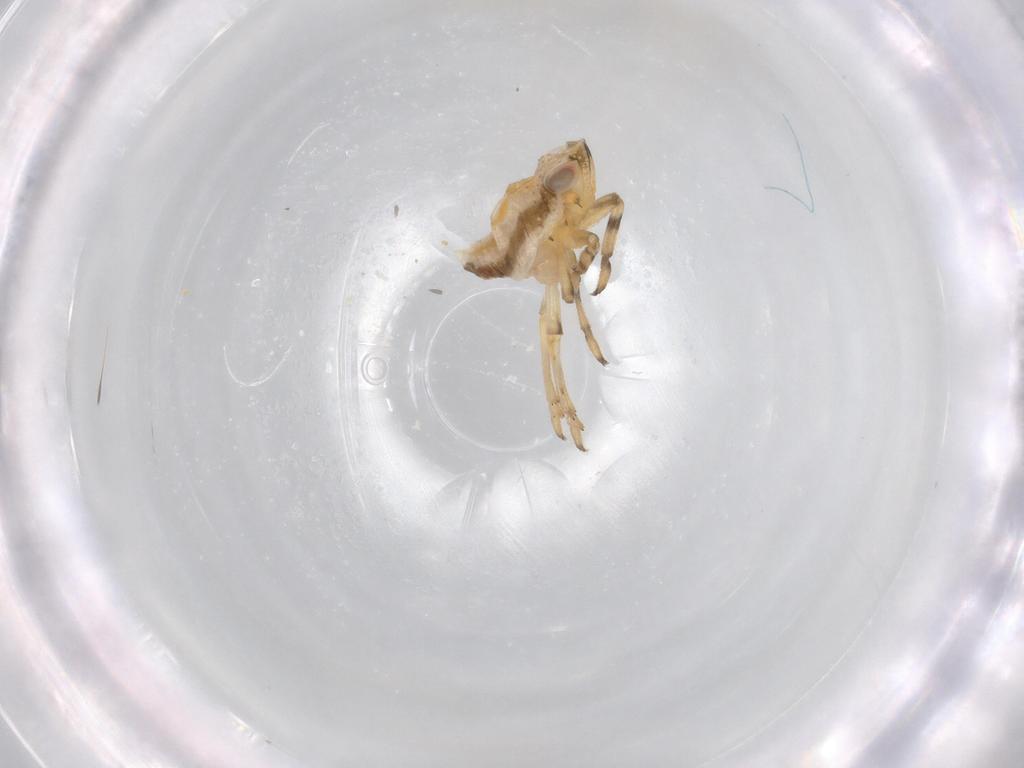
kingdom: Animalia
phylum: Arthropoda
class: Insecta
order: Hemiptera
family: Issidae
